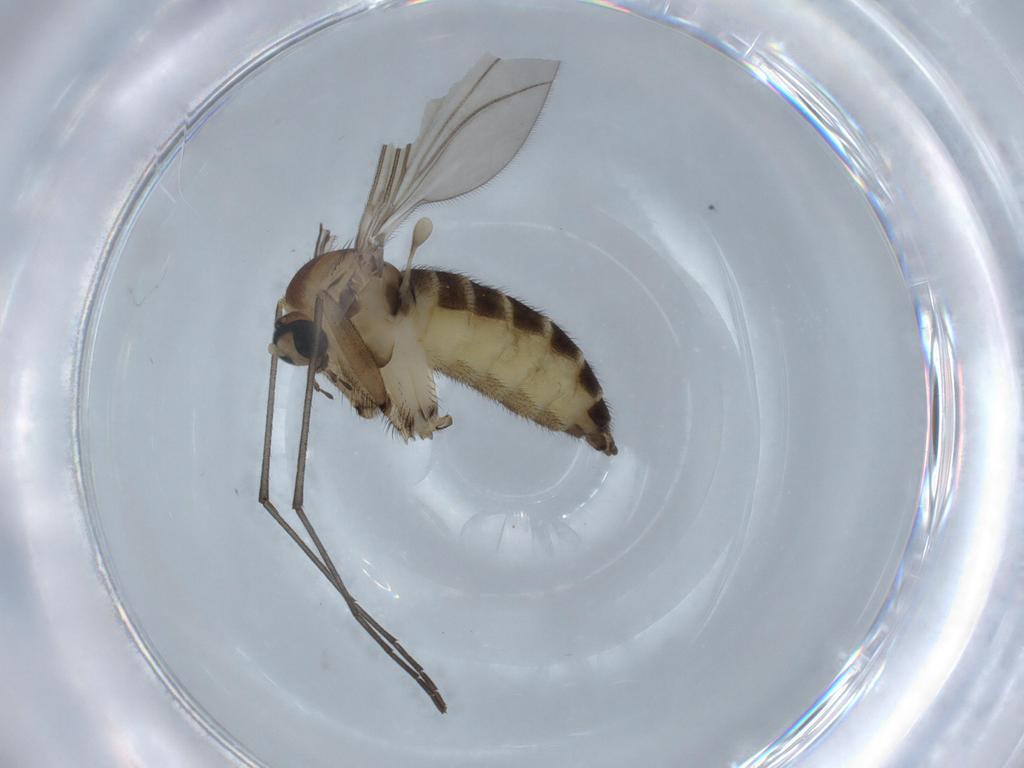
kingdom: Animalia
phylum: Arthropoda
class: Insecta
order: Diptera
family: Sciaridae
